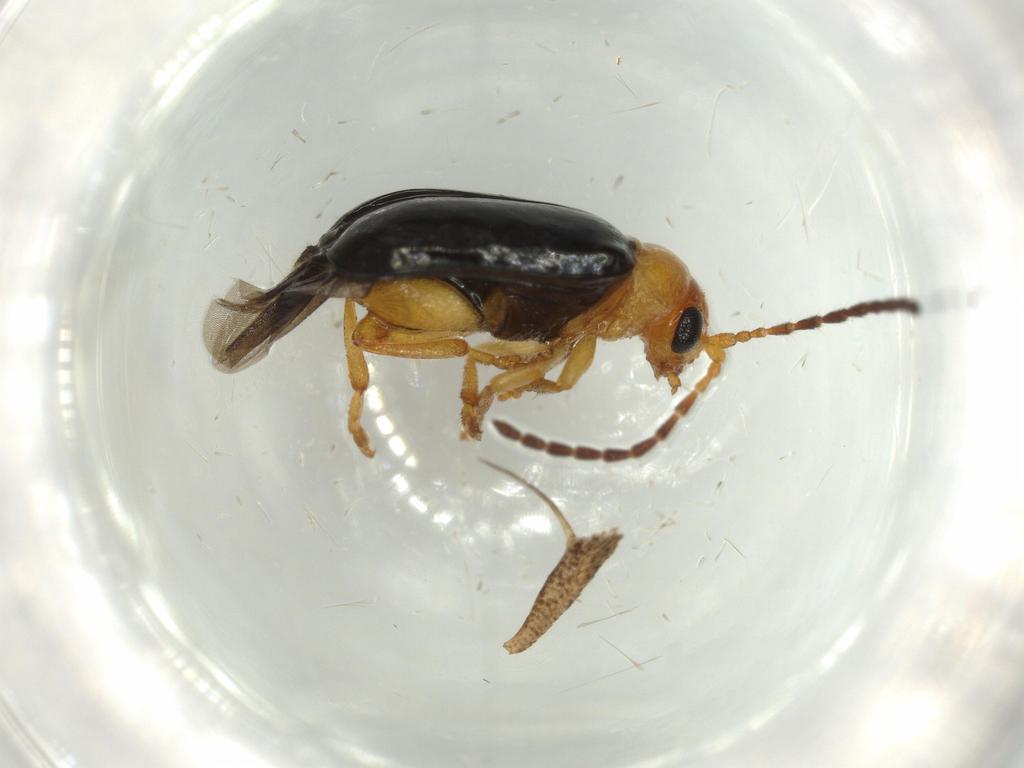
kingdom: Animalia
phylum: Arthropoda
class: Insecta
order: Coleoptera
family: Chrysomelidae
